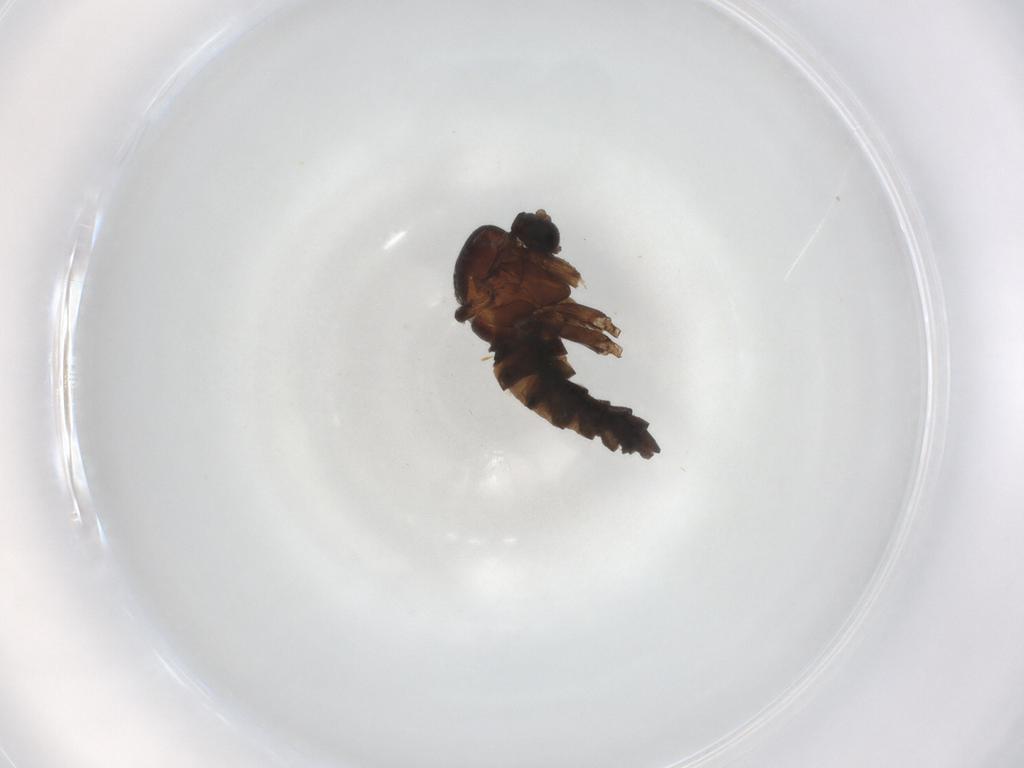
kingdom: Animalia
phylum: Arthropoda
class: Insecta
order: Diptera
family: Sciaridae
